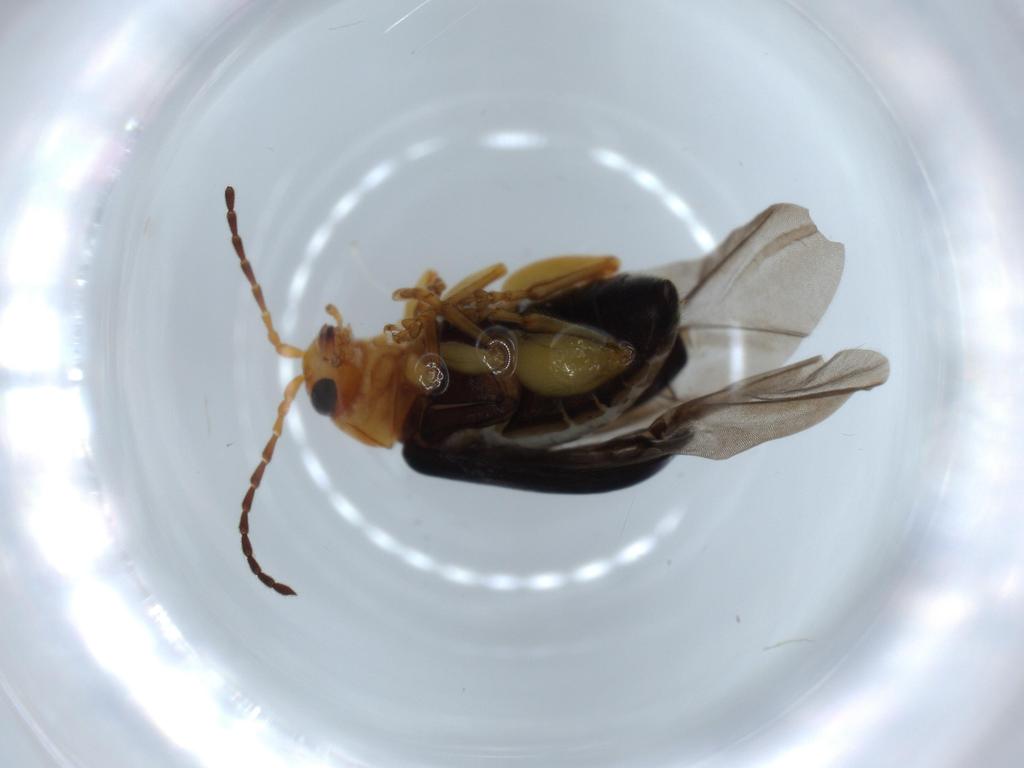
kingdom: Animalia
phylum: Arthropoda
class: Insecta
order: Coleoptera
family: Chrysomelidae
